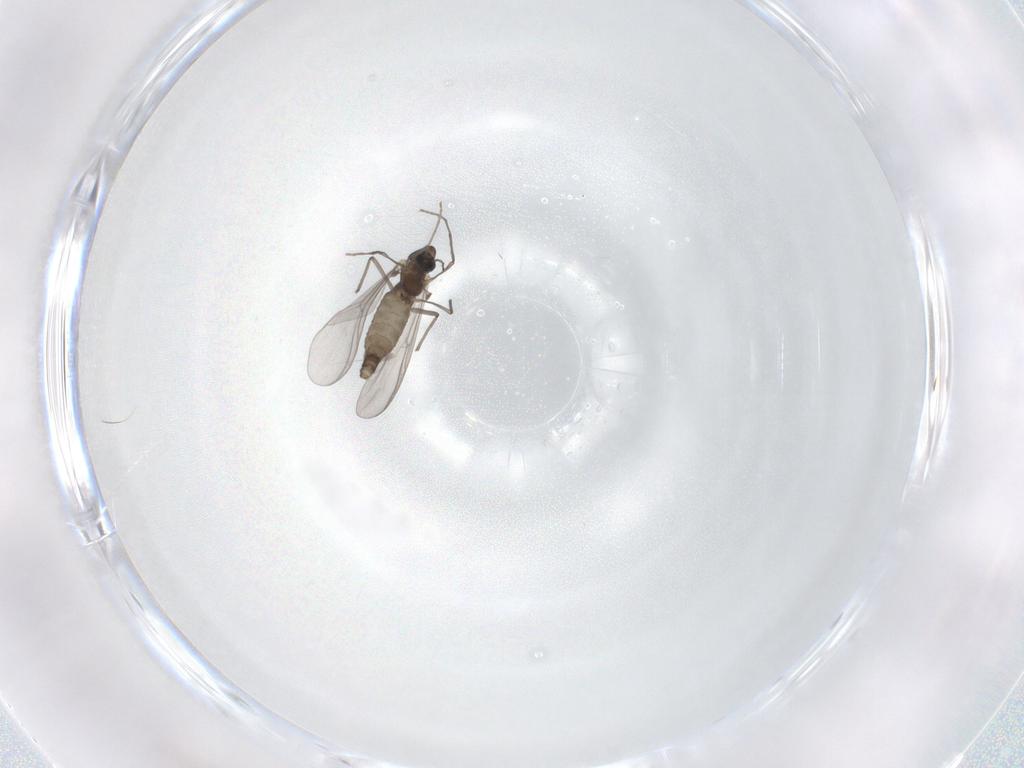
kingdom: Animalia
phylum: Arthropoda
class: Insecta
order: Diptera
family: Chironomidae
